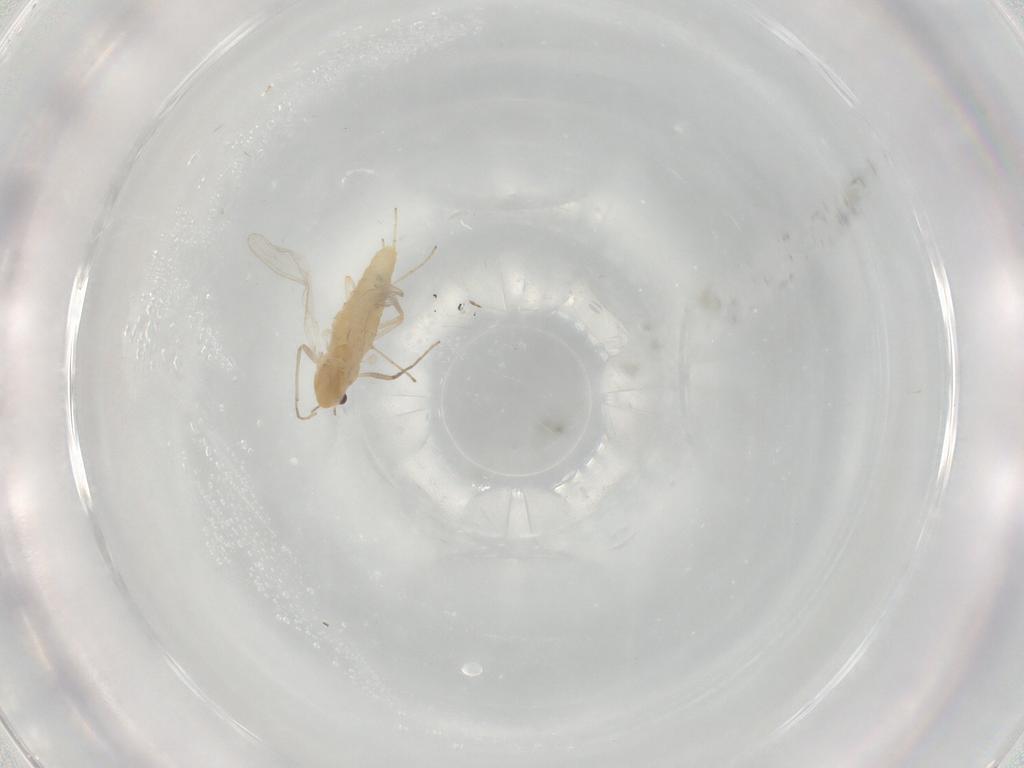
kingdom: Animalia
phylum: Arthropoda
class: Insecta
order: Diptera
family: Chironomidae
